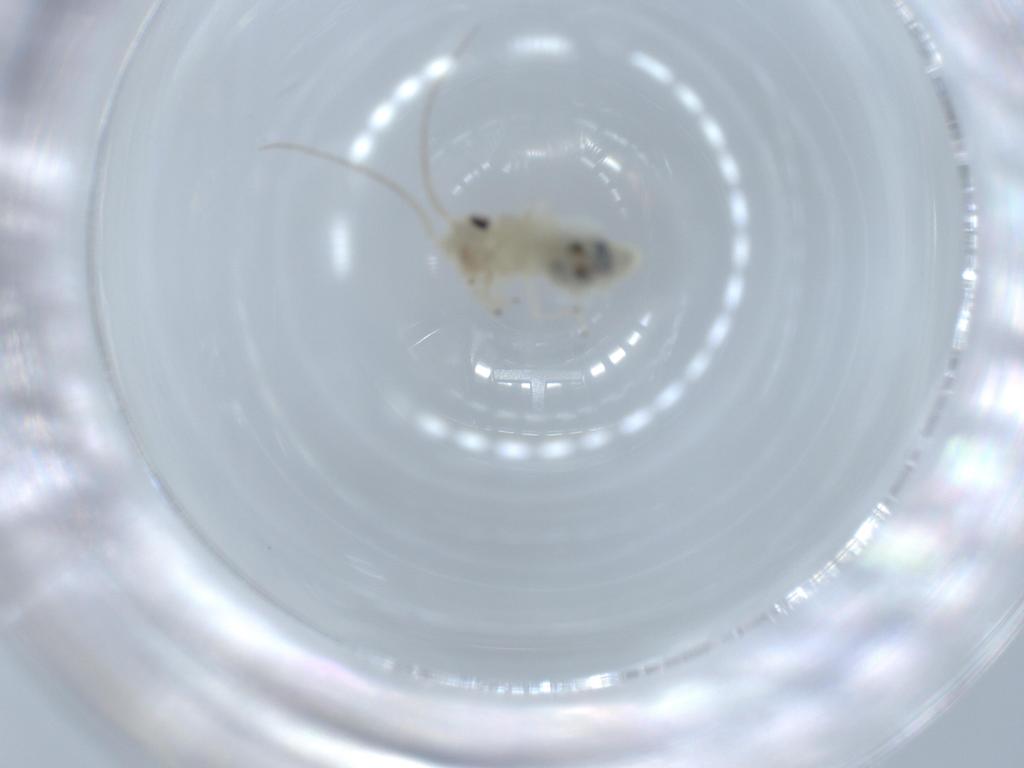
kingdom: Animalia
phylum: Arthropoda
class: Insecta
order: Psocodea
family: Caeciliusidae
